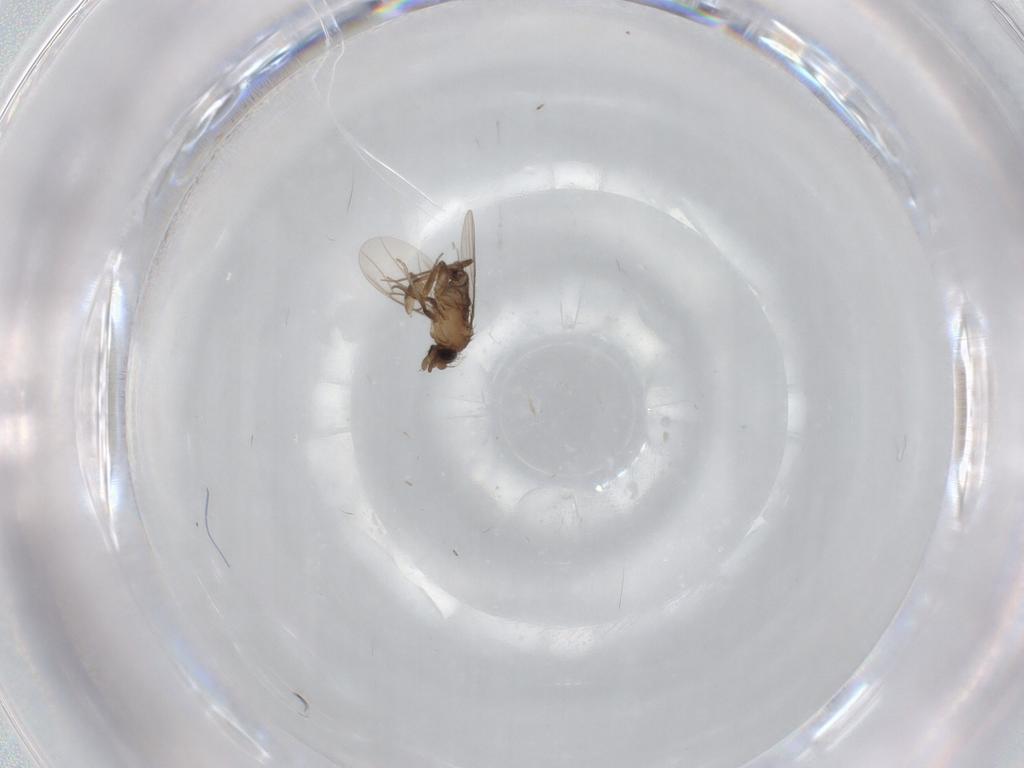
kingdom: Animalia
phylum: Arthropoda
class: Insecta
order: Diptera
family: Phoridae
